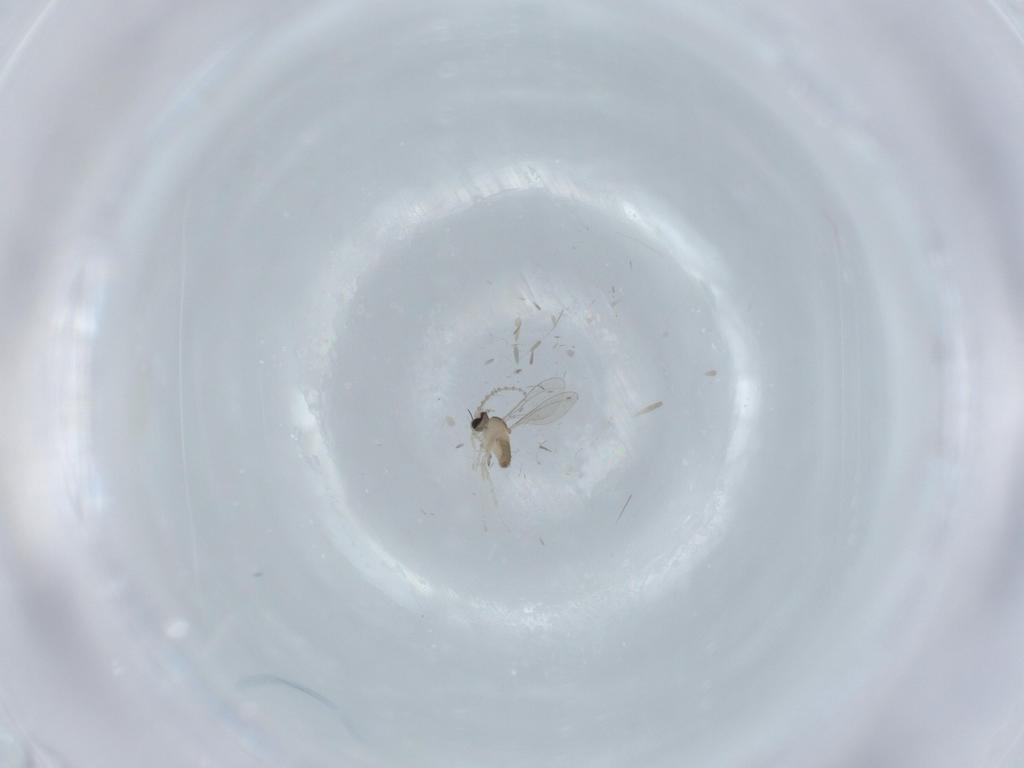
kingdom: Animalia
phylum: Arthropoda
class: Insecta
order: Diptera
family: Cecidomyiidae
